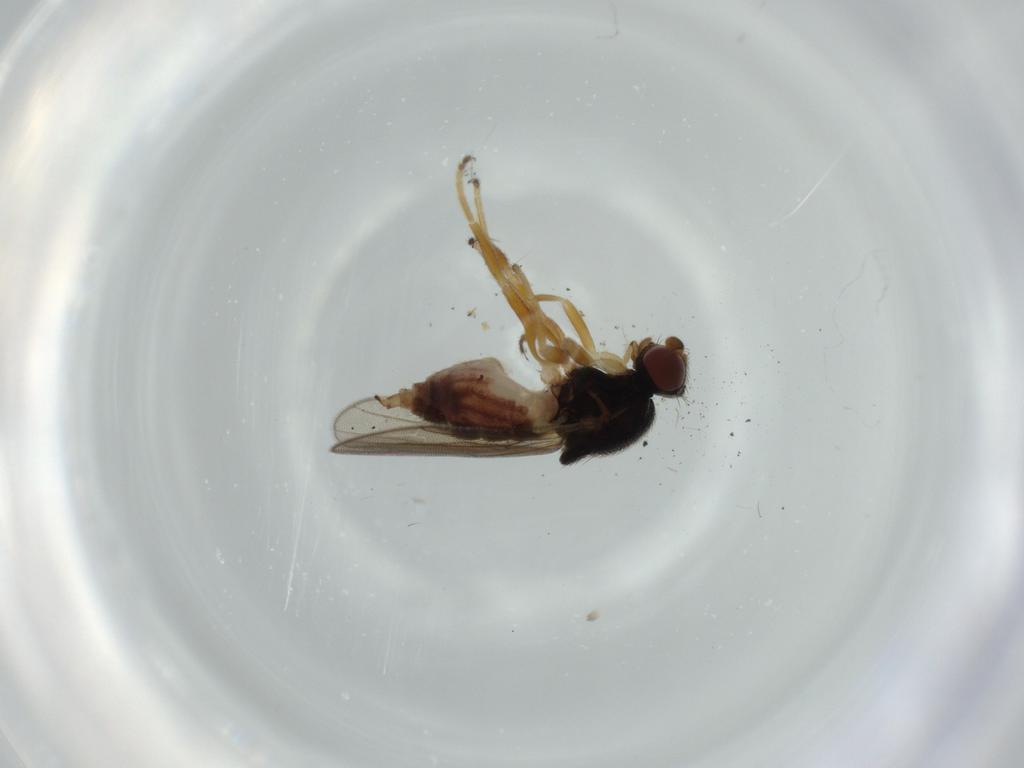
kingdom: Animalia
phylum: Arthropoda
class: Insecta
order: Diptera
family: Chloropidae
